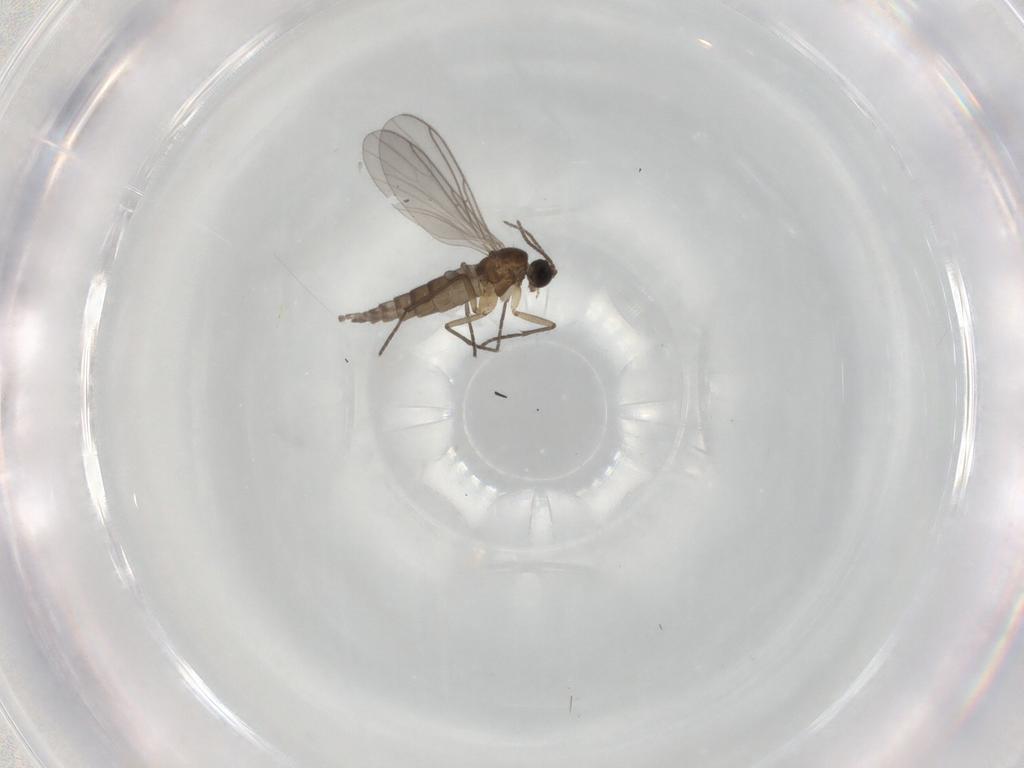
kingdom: Animalia
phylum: Arthropoda
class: Insecta
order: Diptera
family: Sciaridae
